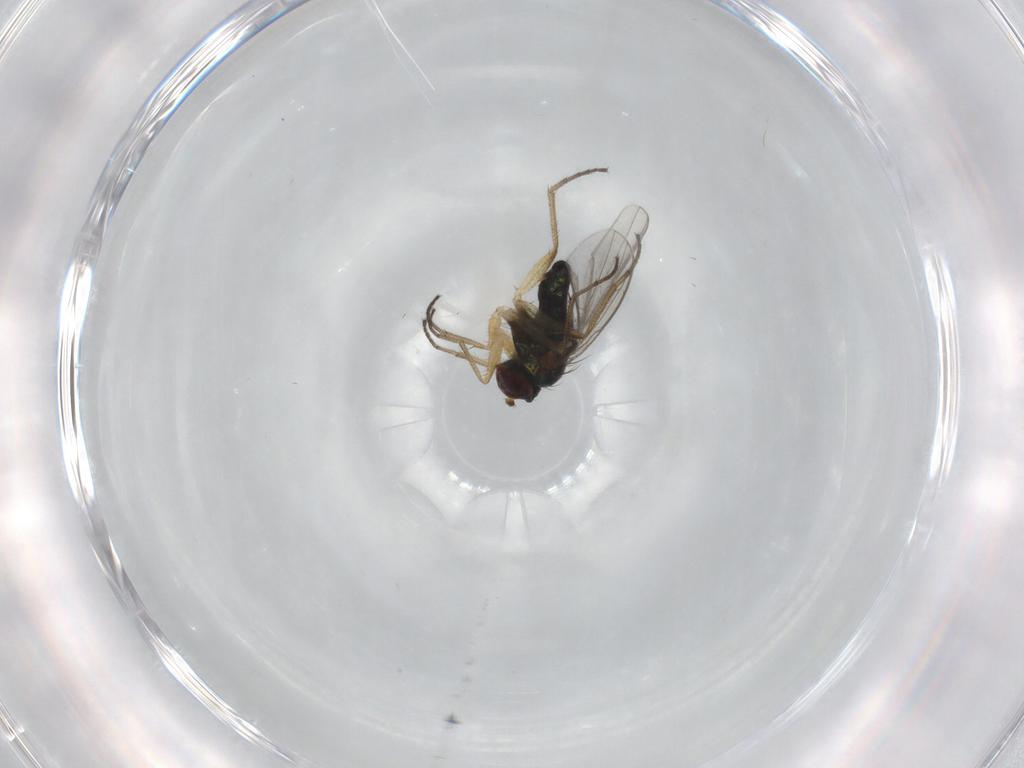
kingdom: Animalia
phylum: Arthropoda
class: Insecta
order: Diptera
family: Dolichopodidae
